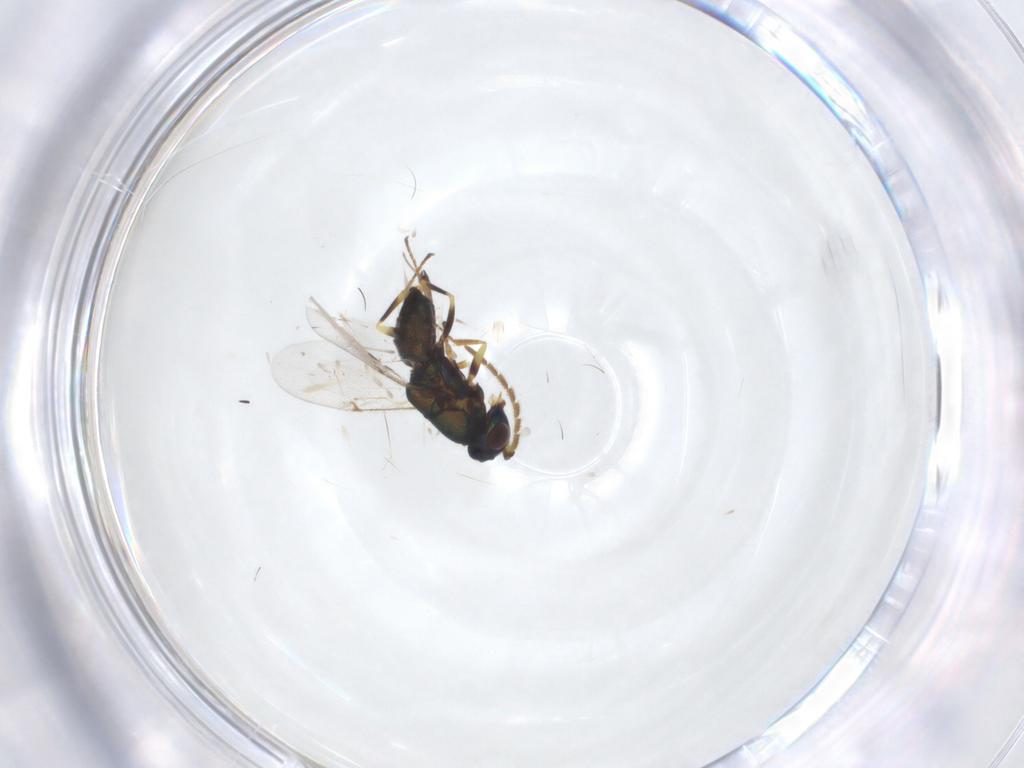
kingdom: Animalia
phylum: Arthropoda
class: Insecta
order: Hymenoptera
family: Encyrtidae
